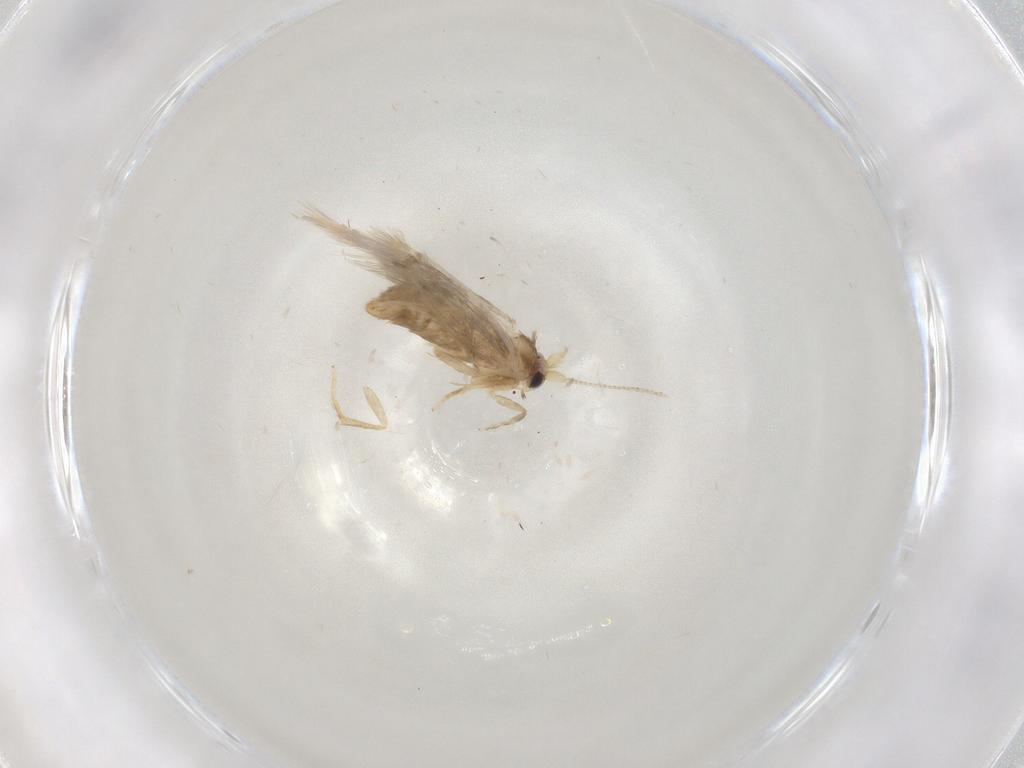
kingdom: Animalia
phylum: Arthropoda
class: Insecta
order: Lepidoptera
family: Nepticulidae
